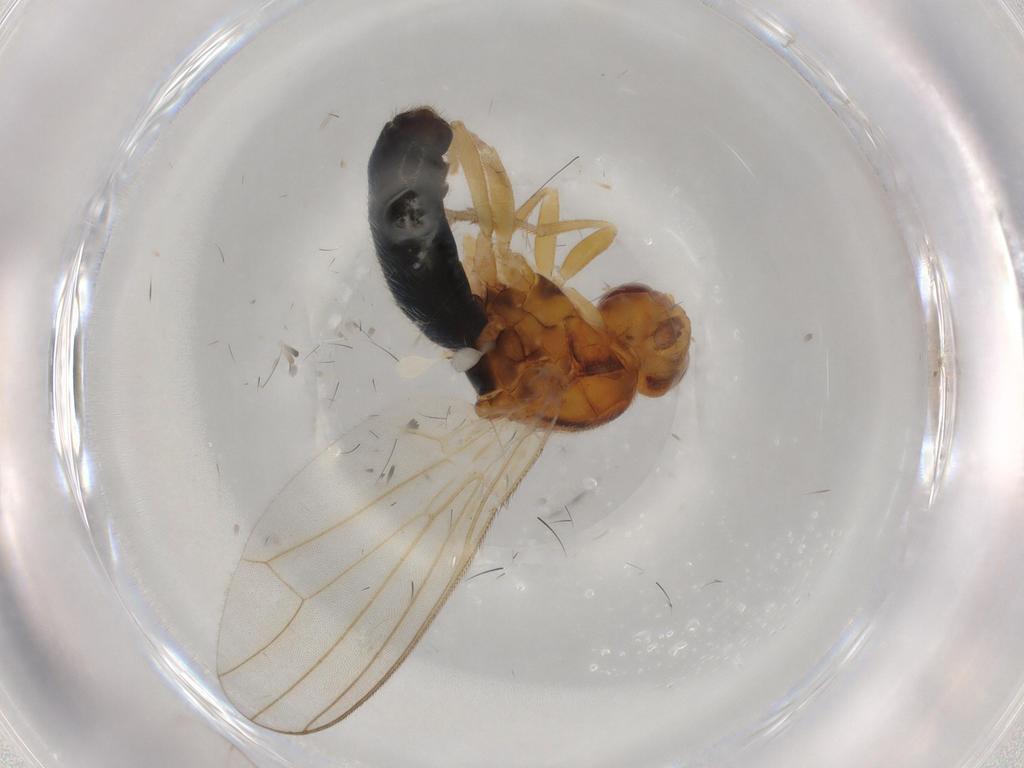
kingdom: Animalia
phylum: Arthropoda
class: Insecta
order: Diptera
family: Psilidae
